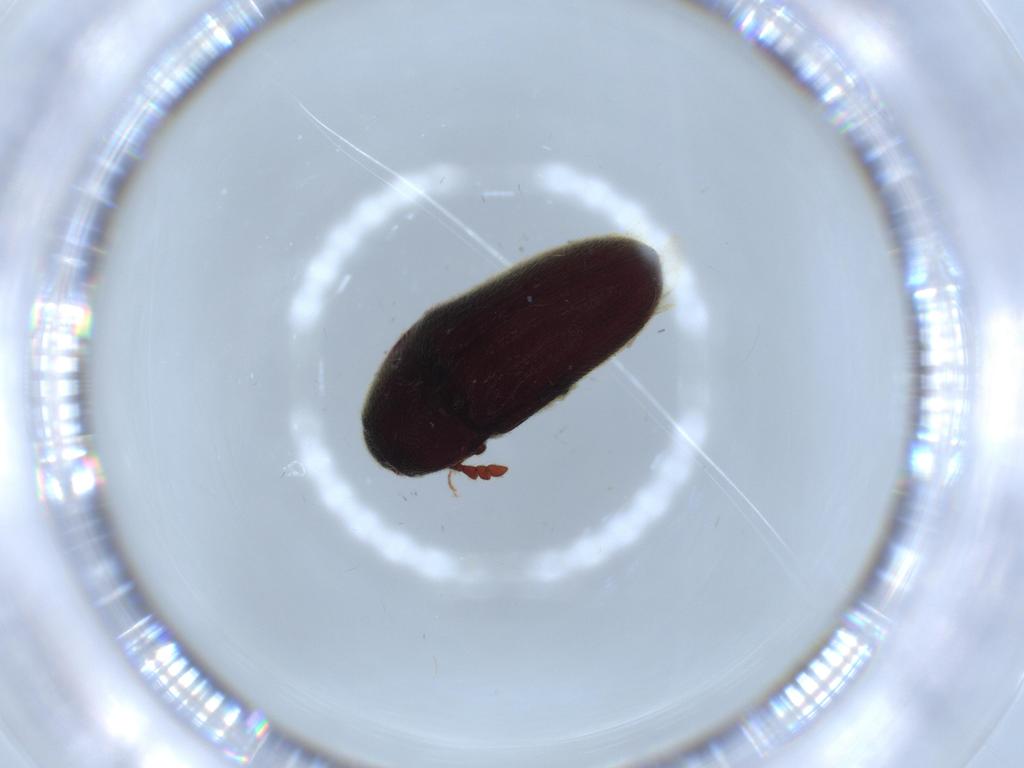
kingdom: Animalia
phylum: Arthropoda
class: Insecta
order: Coleoptera
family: Throscidae
